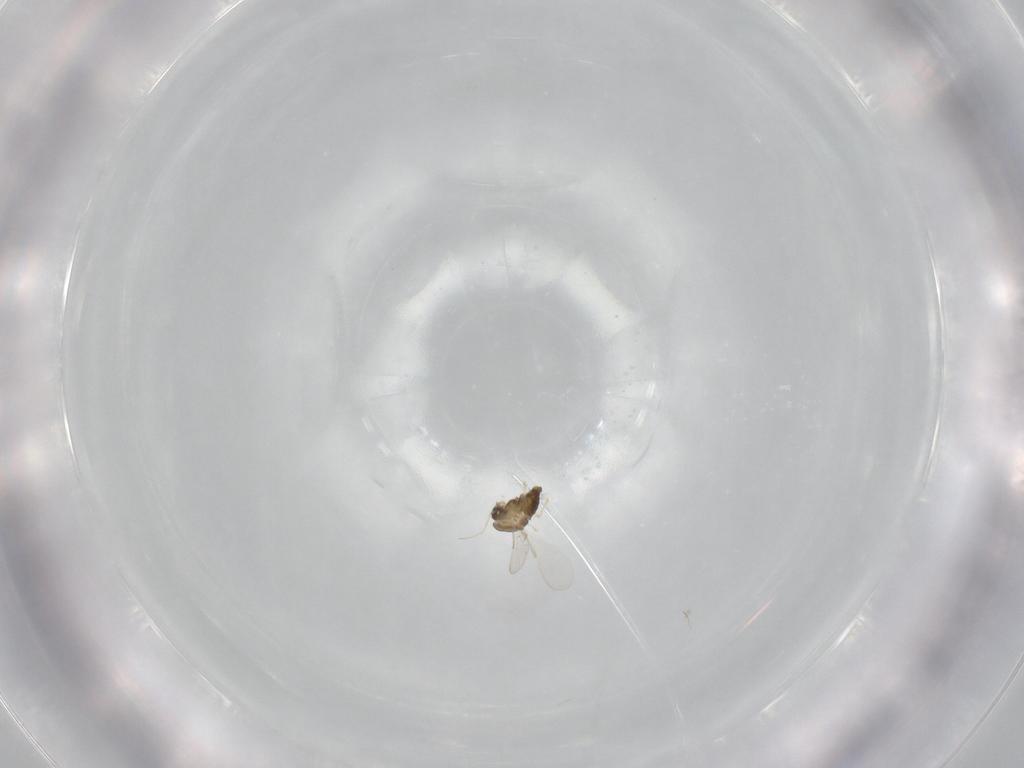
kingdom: Animalia
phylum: Arthropoda
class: Insecta
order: Diptera
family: Chironomidae
